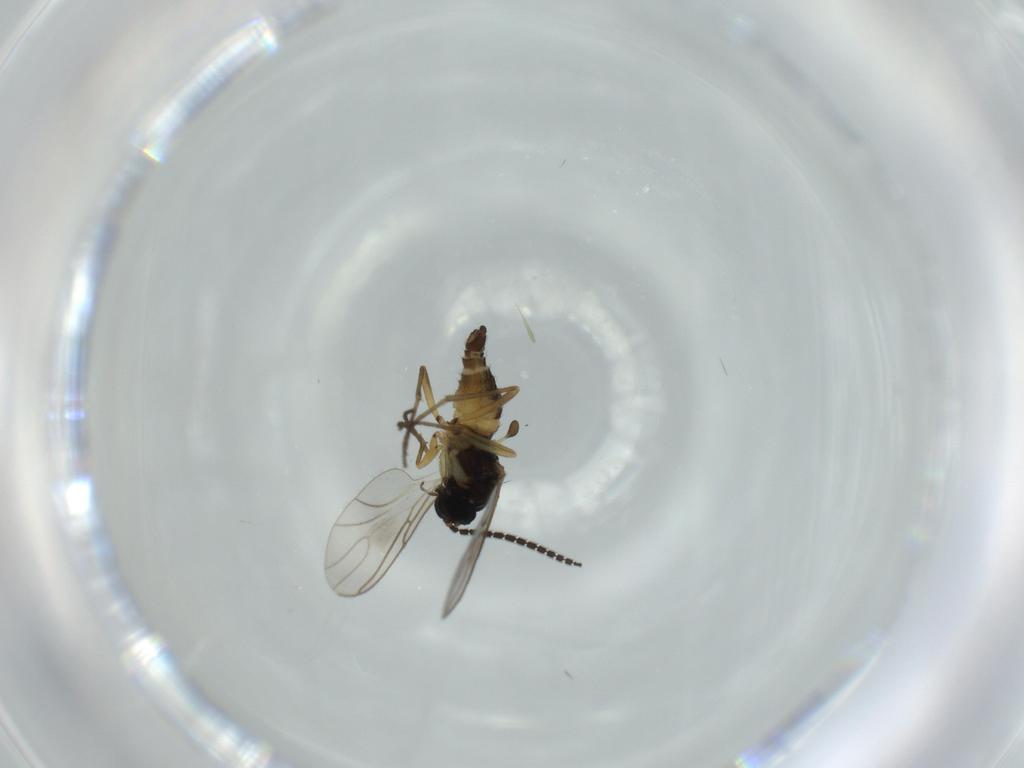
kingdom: Animalia
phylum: Arthropoda
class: Insecta
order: Diptera
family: Sciaridae
